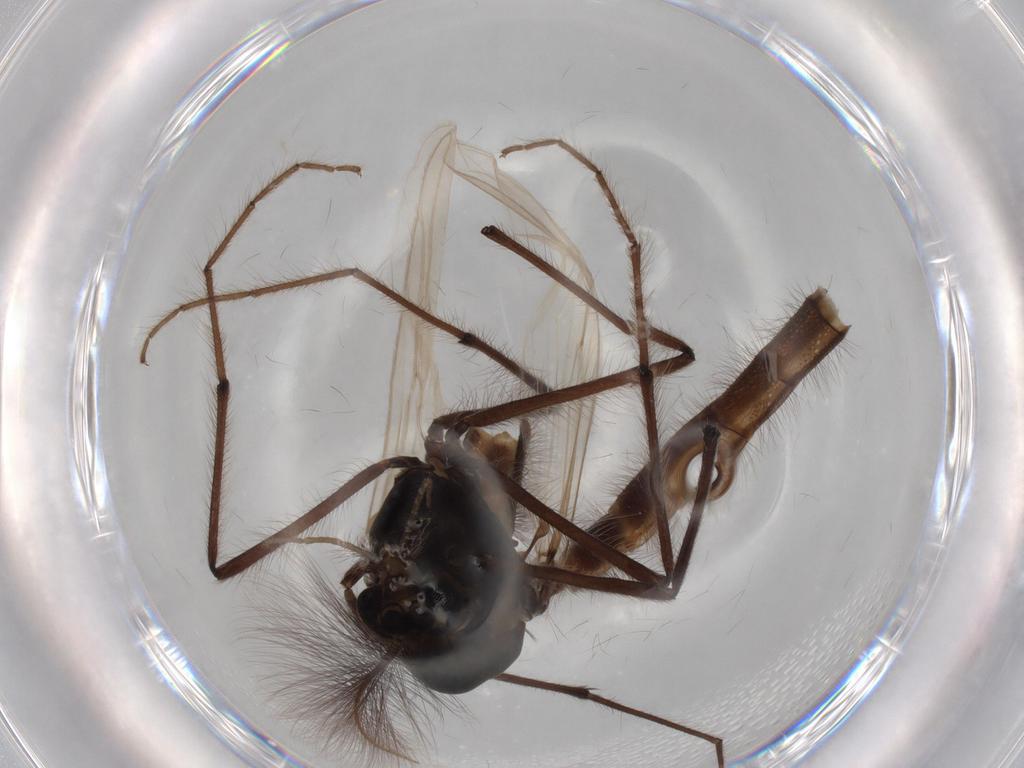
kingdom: Animalia
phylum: Arthropoda
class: Insecta
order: Diptera
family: Chironomidae
